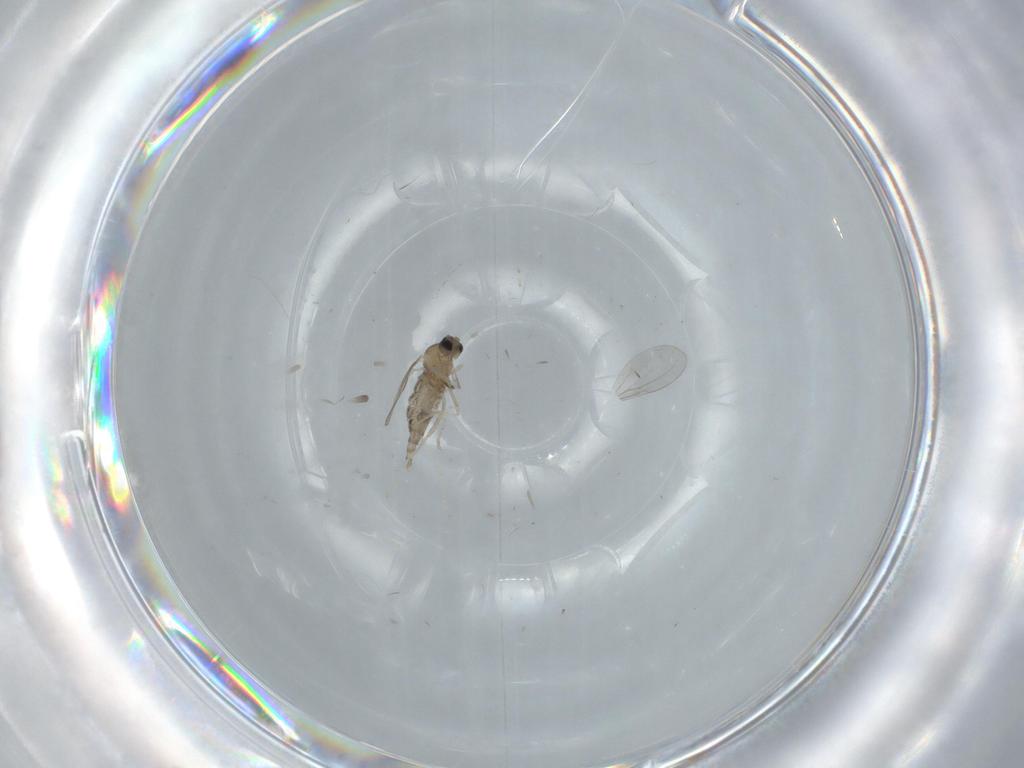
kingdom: Animalia
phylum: Arthropoda
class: Insecta
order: Diptera
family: Cecidomyiidae
